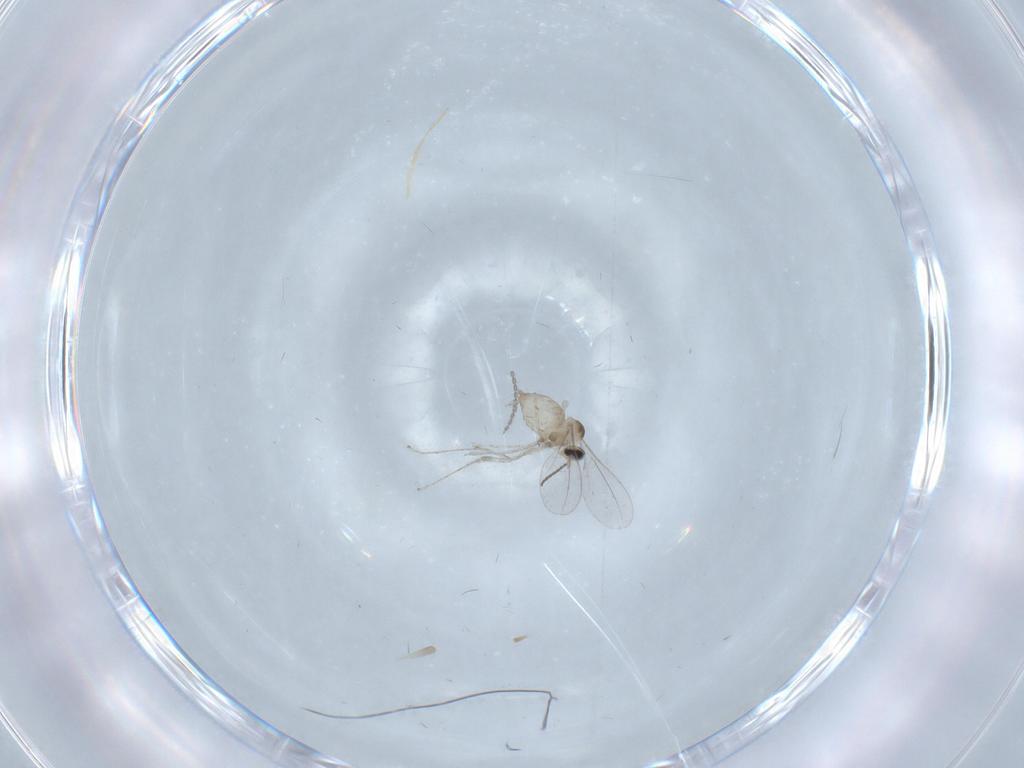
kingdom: Animalia
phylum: Arthropoda
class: Insecta
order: Diptera
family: Cecidomyiidae
